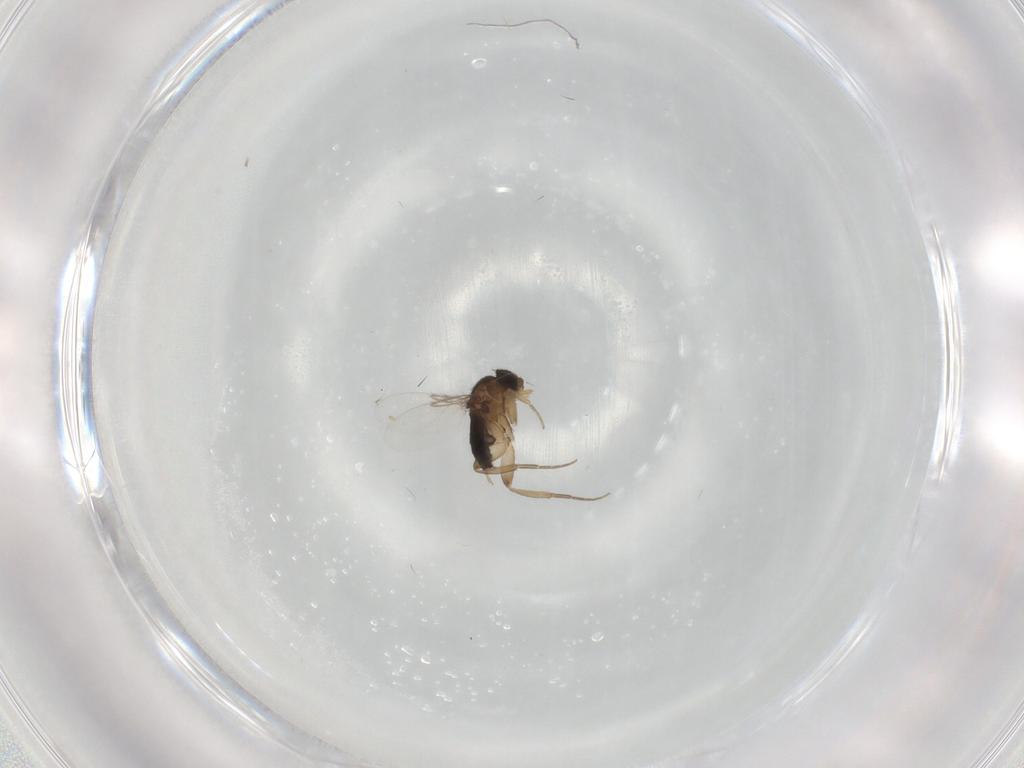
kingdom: Animalia
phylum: Arthropoda
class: Insecta
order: Diptera
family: Phoridae
